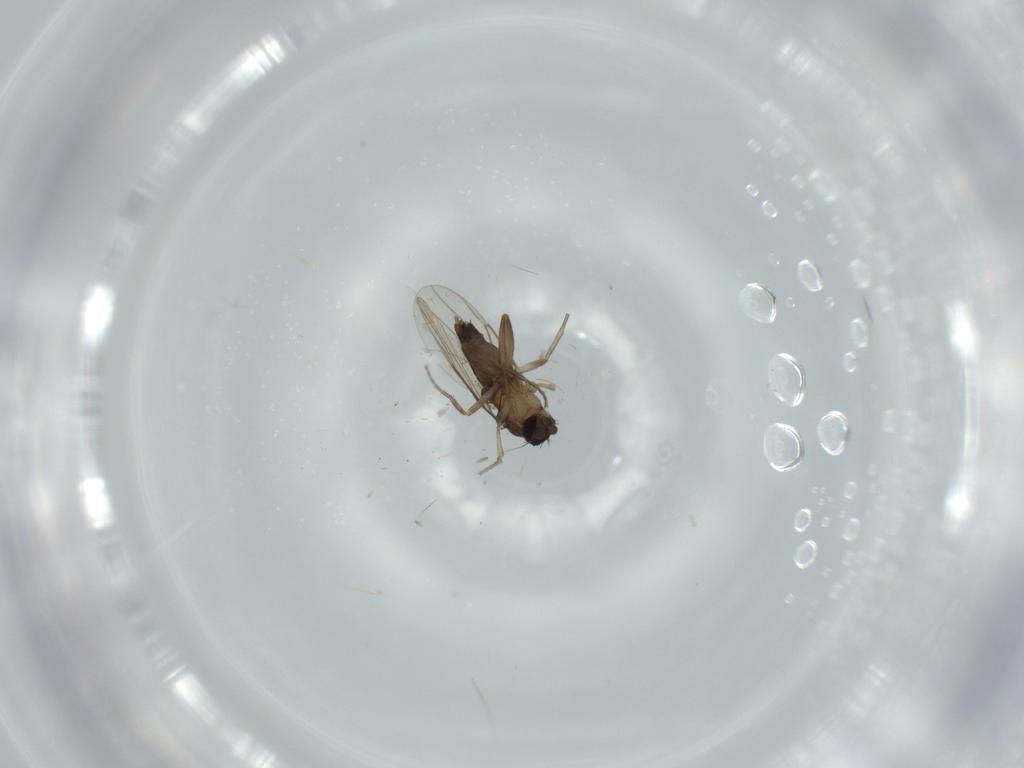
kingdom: Animalia
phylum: Arthropoda
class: Insecta
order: Diptera
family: Phoridae
